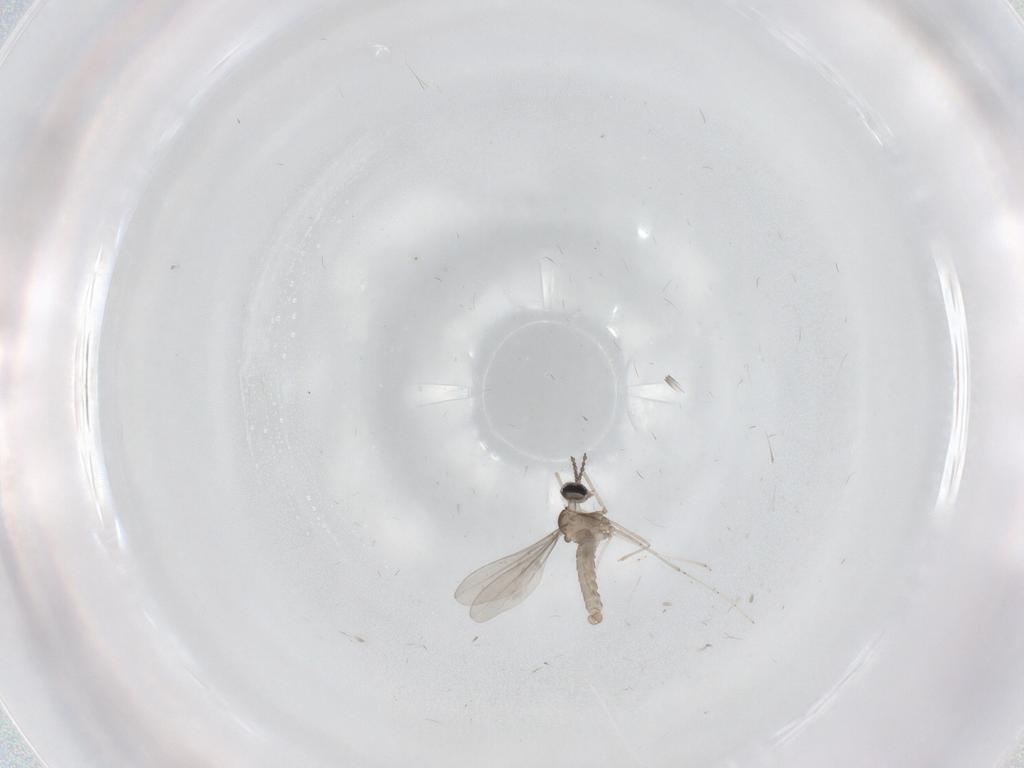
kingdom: Animalia
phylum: Arthropoda
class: Insecta
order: Diptera
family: Cecidomyiidae
